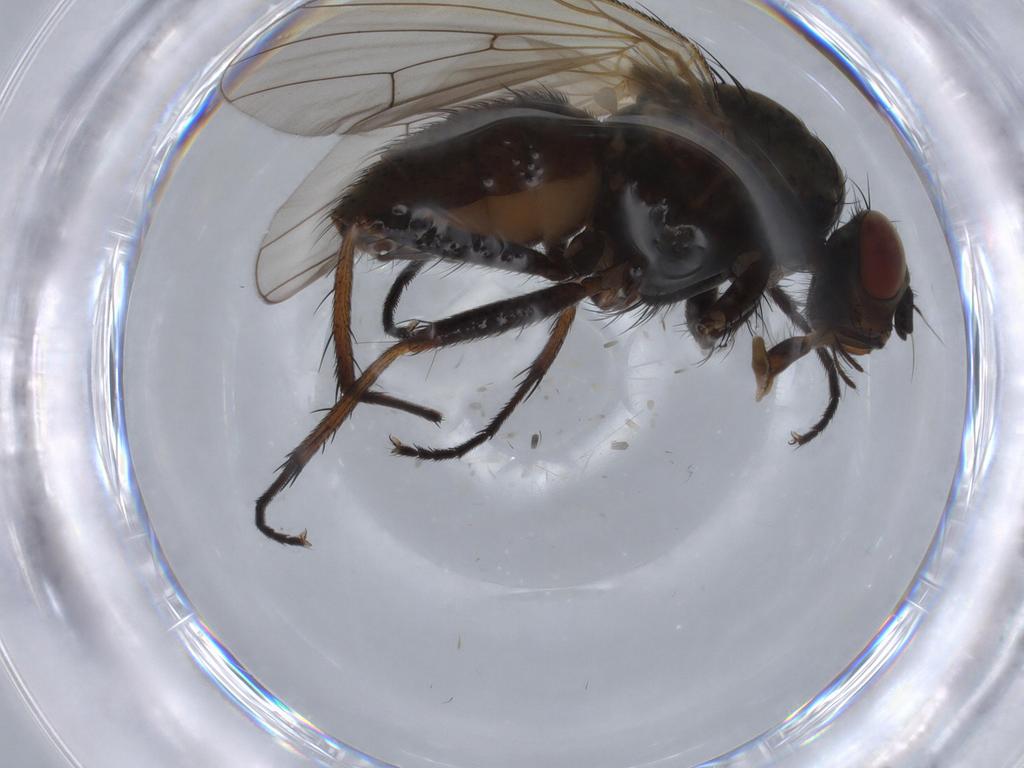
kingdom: Animalia
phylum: Arthropoda
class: Insecta
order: Diptera
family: Anthomyiidae
